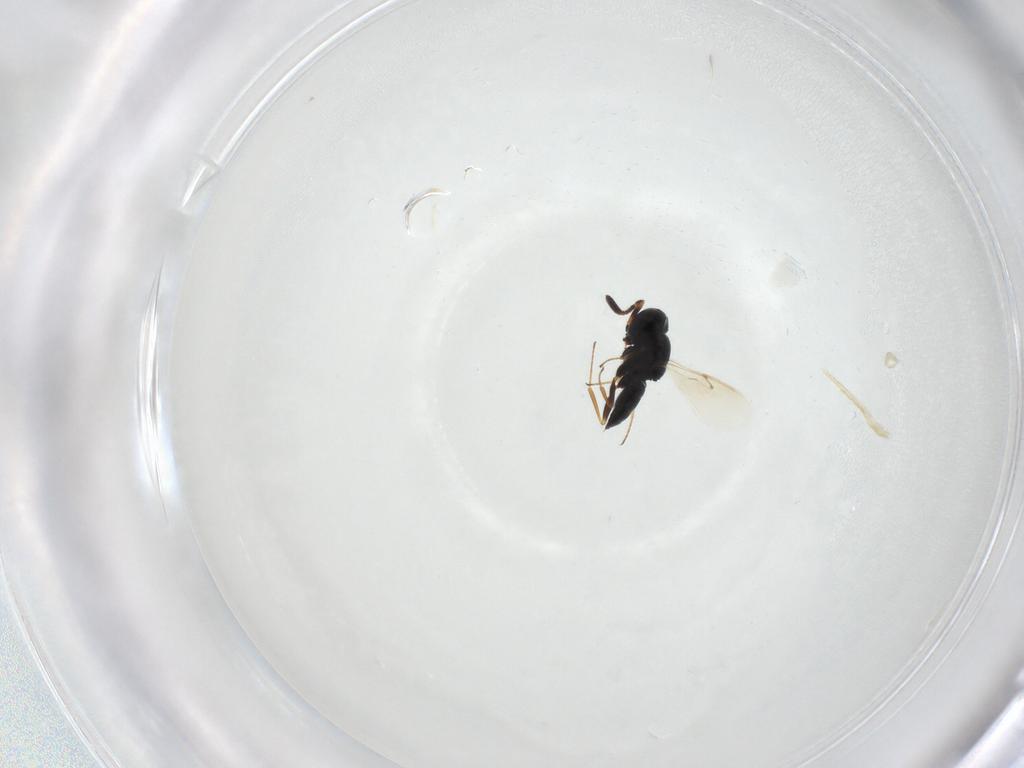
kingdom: Animalia
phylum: Arthropoda
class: Insecta
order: Hymenoptera
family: Scelionidae
